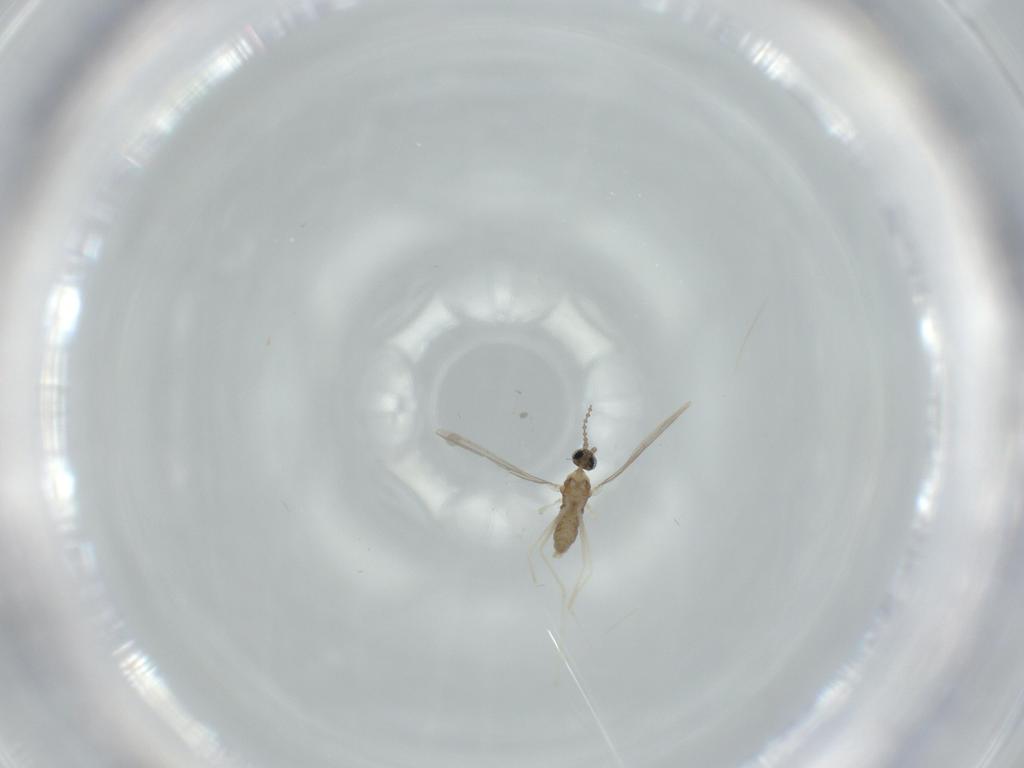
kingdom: Animalia
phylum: Arthropoda
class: Insecta
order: Diptera
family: Cecidomyiidae
